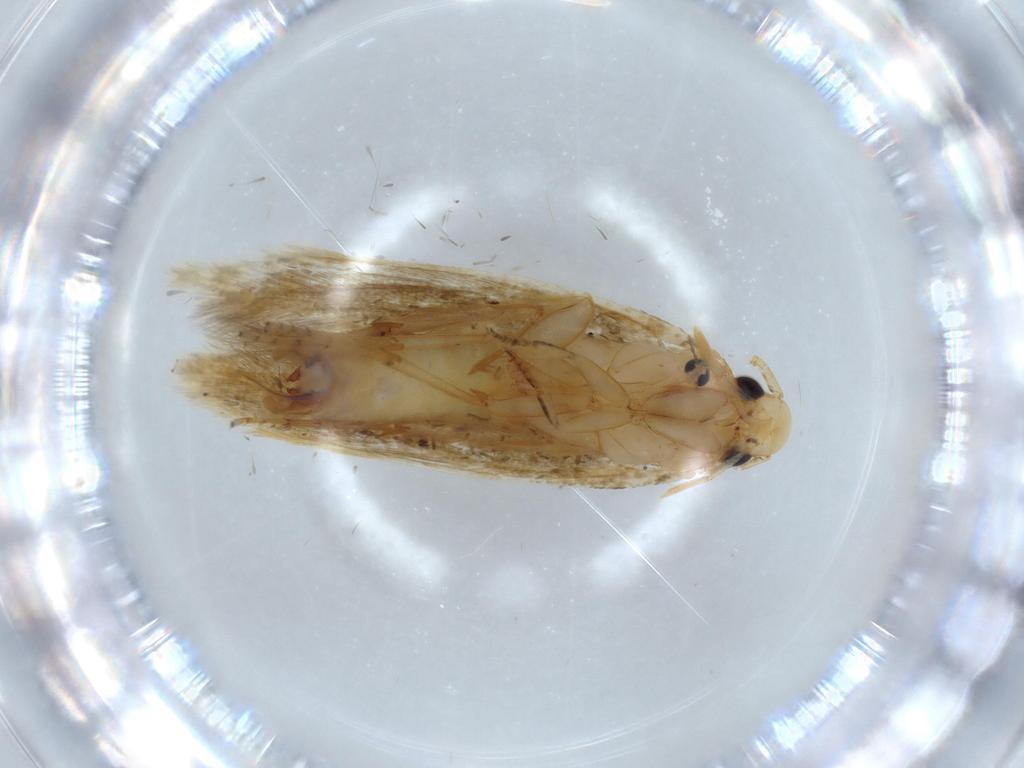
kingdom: Animalia
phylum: Arthropoda
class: Insecta
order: Lepidoptera
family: Tineidae
